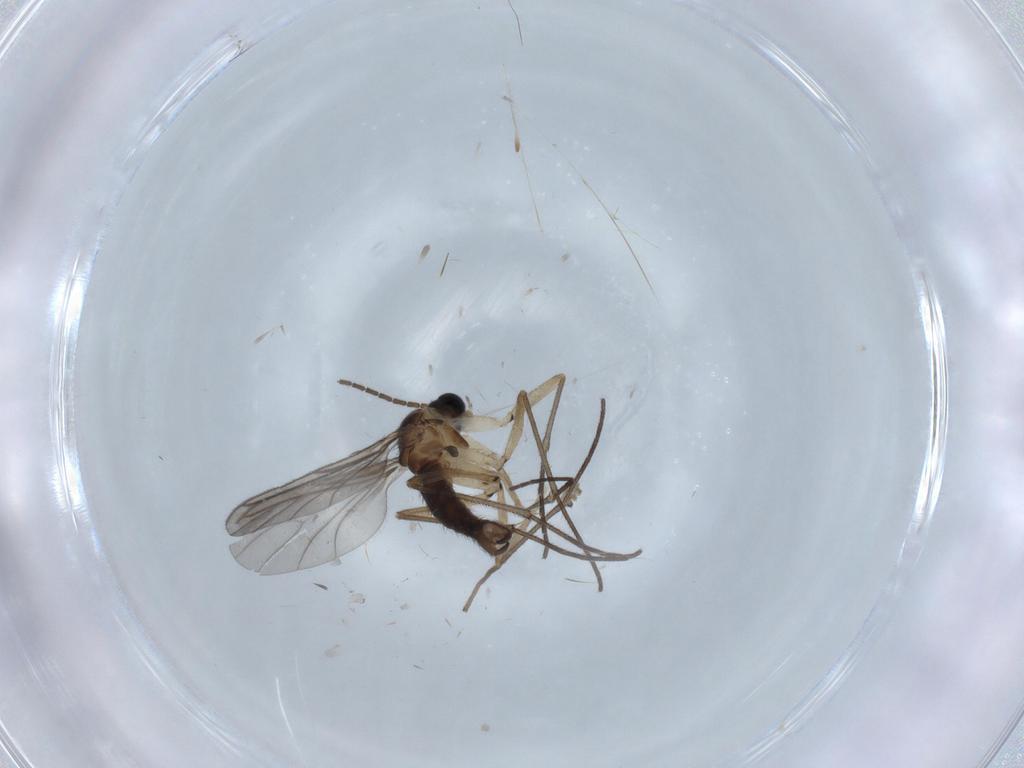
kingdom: Animalia
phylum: Arthropoda
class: Insecta
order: Diptera
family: Sciaridae
